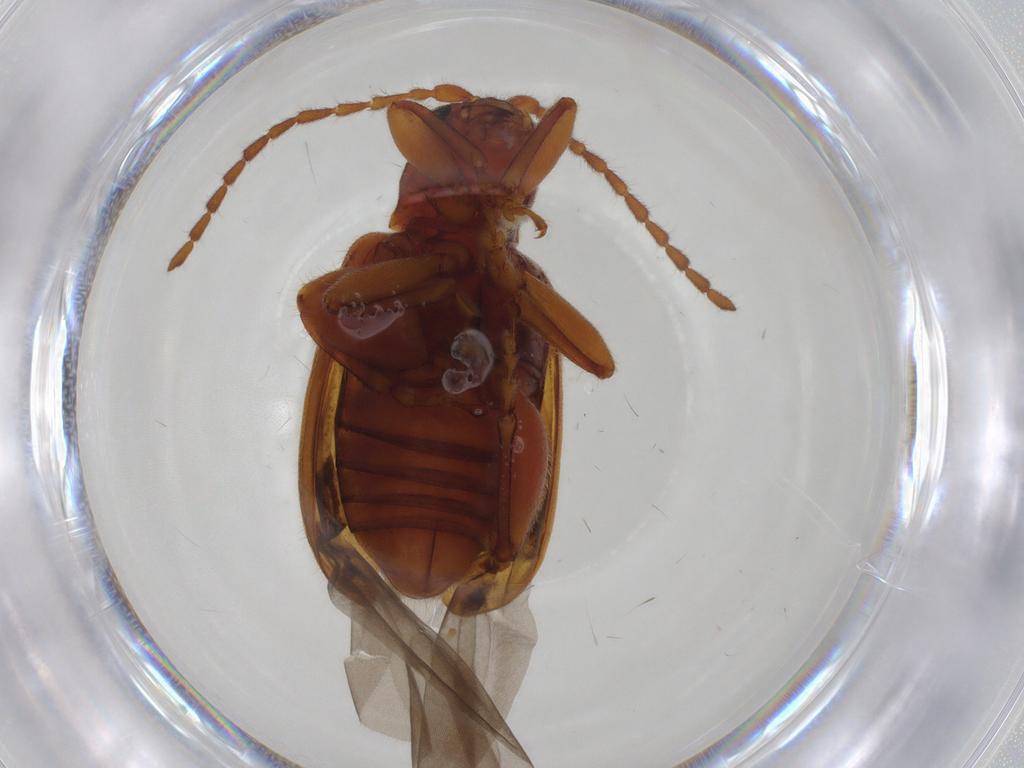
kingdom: Animalia
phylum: Arthropoda
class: Insecta
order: Coleoptera
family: Chrysomelidae
